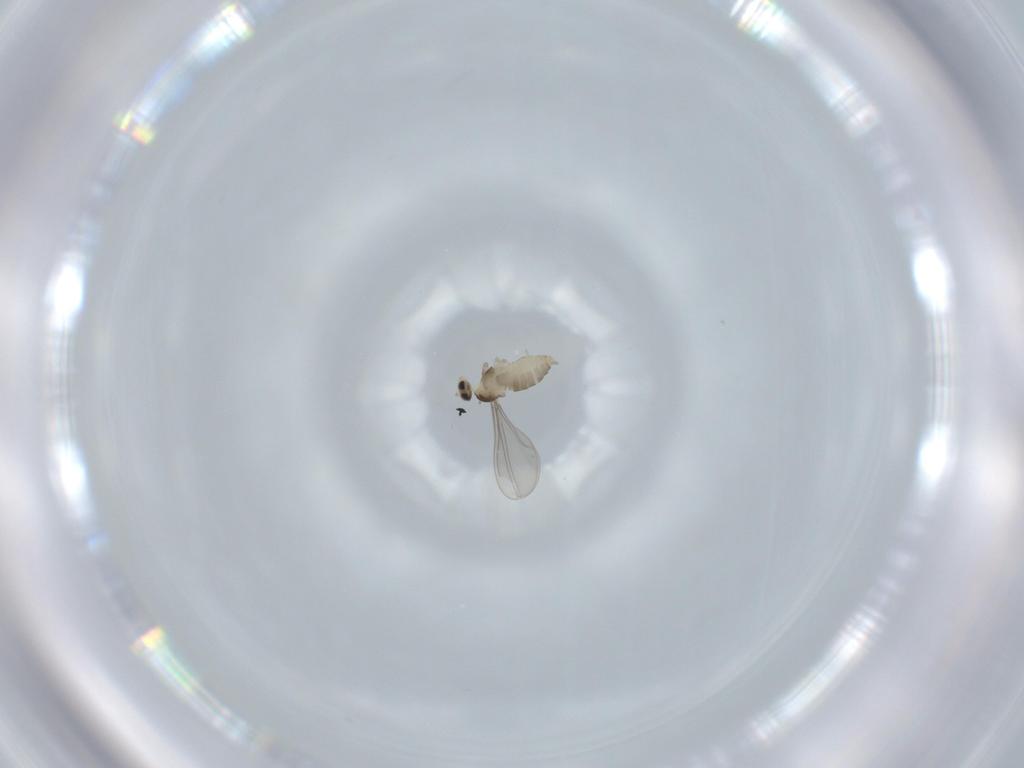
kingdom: Animalia
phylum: Arthropoda
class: Insecta
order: Diptera
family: Cecidomyiidae
